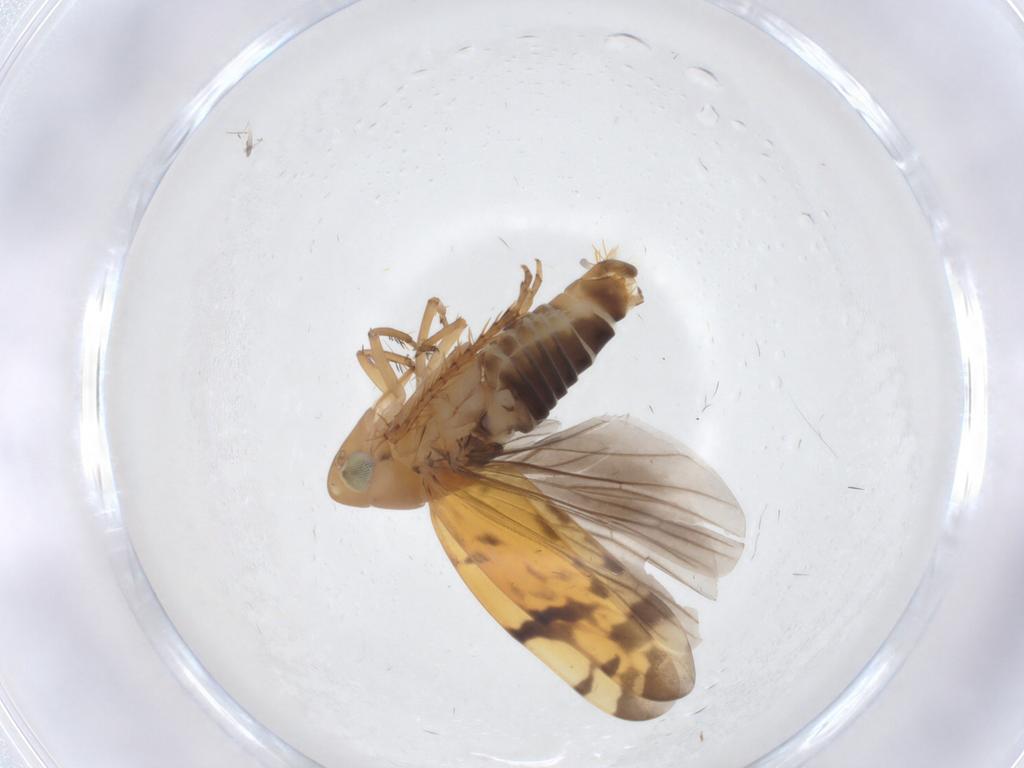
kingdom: Animalia
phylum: Arthropoda
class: Insecta
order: Hemiptera
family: Cicadellidae
